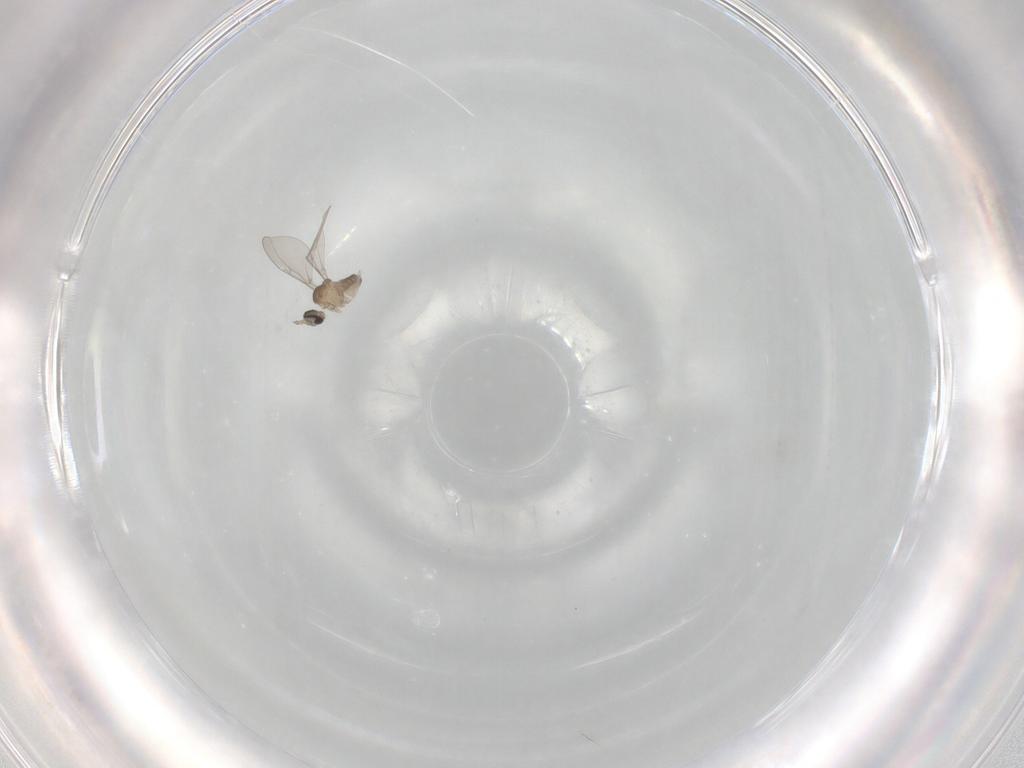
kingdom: Animalia
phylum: Arthropoda
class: Insecta
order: Diptera
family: Cecidomyiidae
